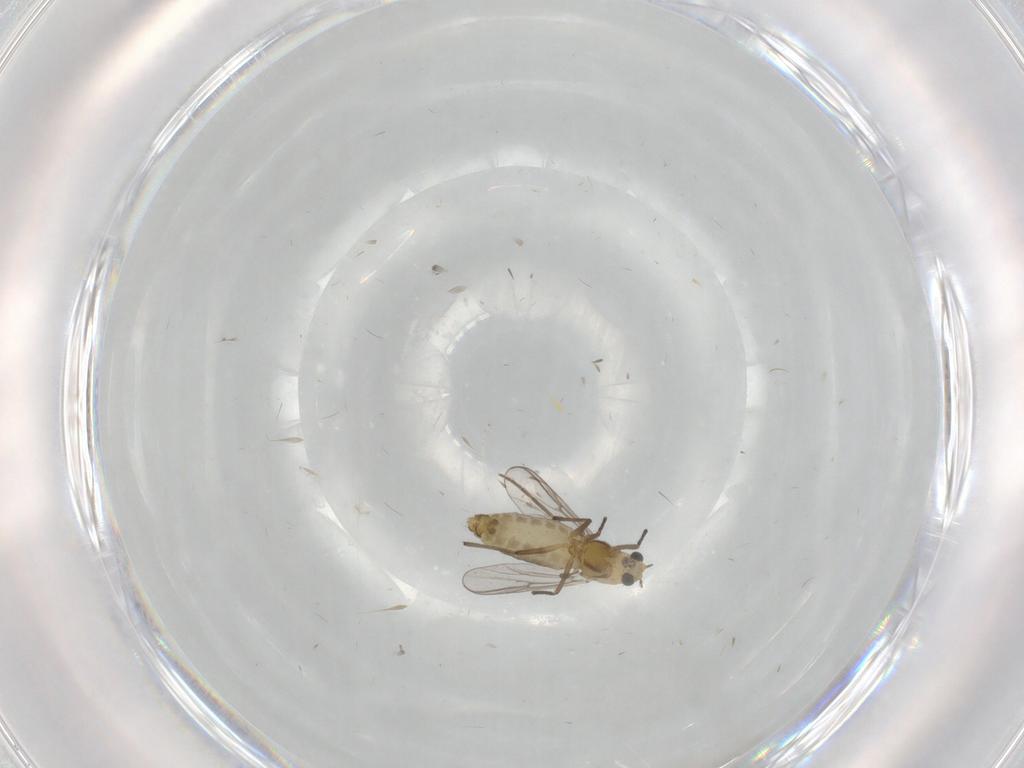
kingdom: Animalia
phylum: Arthropoda
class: Insecta
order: Diptera
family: Chironomidae
